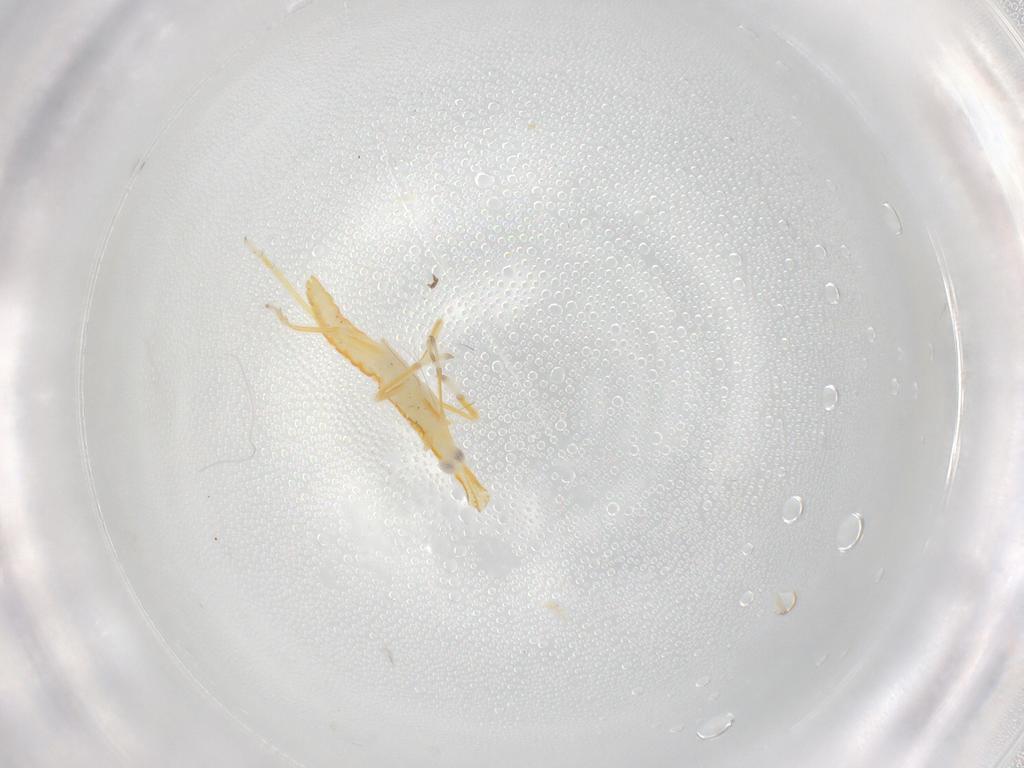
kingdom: Animalia
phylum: Arthropoda
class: Insecta
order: Hemiptera
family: Dictyopharidae
